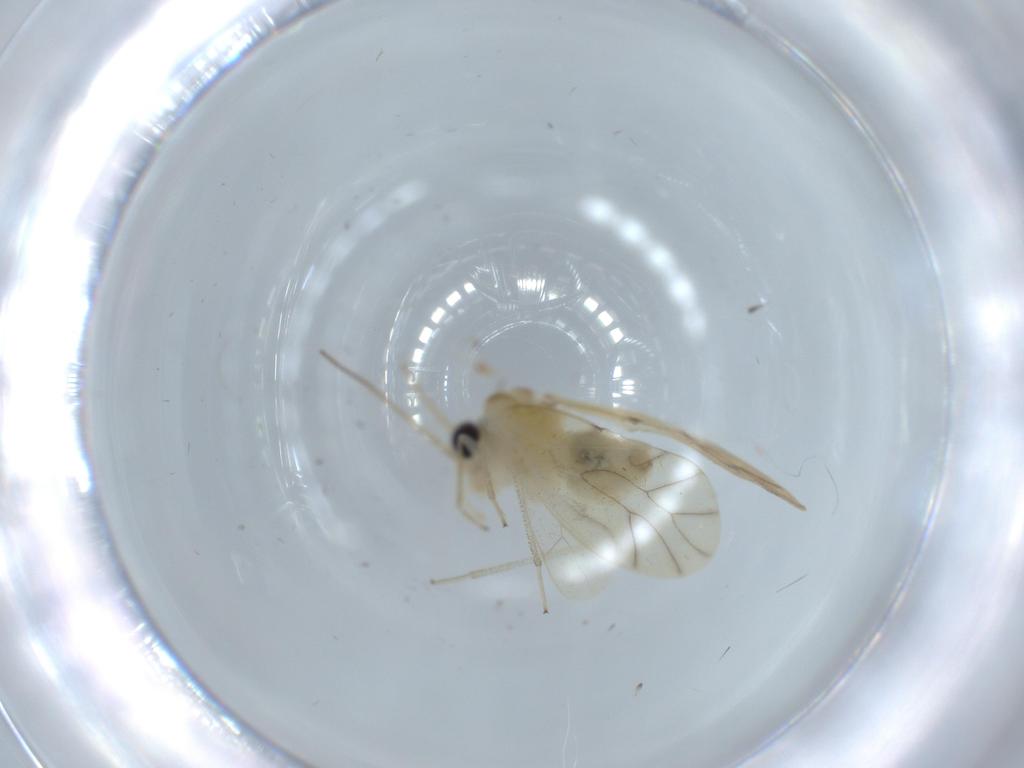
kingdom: Animalia
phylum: Arthropoda
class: Insecta
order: Psocodea
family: Caeciliusidae
